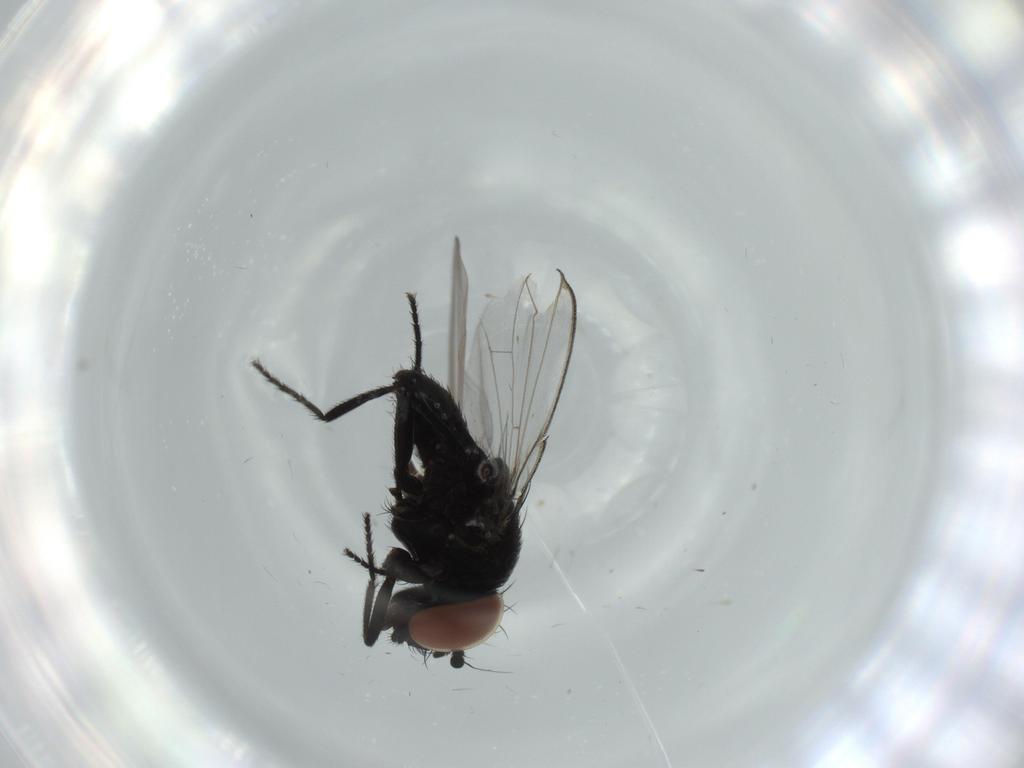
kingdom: Animalia
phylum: Arthropoda
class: Insecta
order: Diptera
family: Milichiidae
